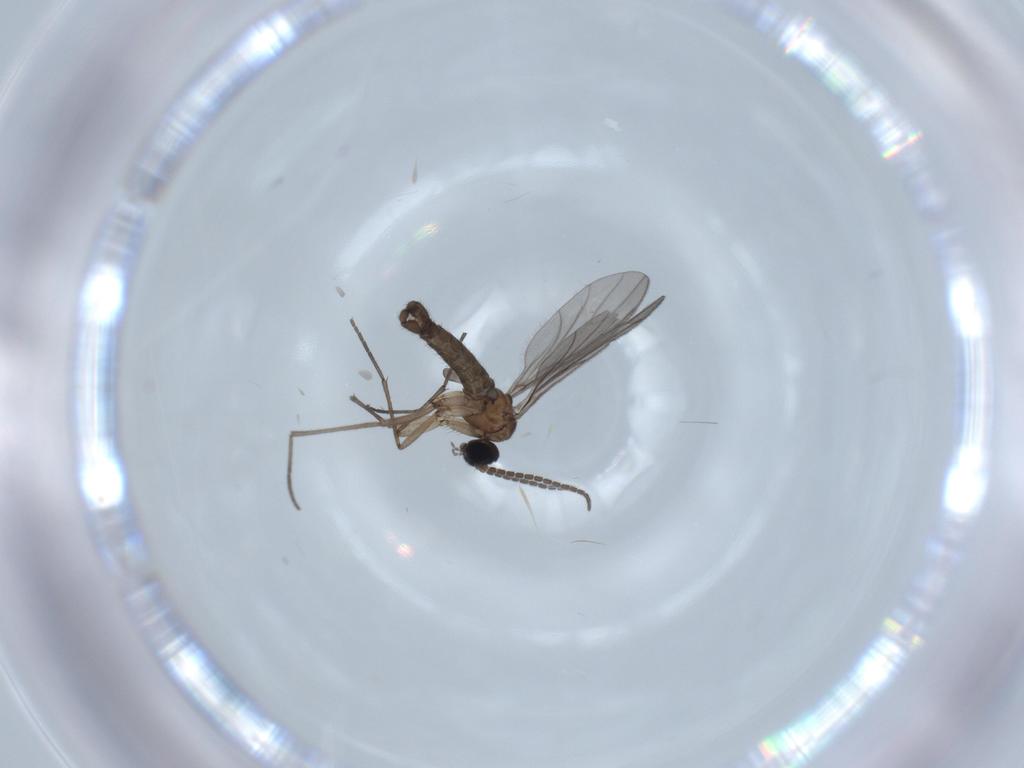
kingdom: Animalia
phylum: Arthropoda
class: Insecta
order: Diptera
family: Sciaridae
